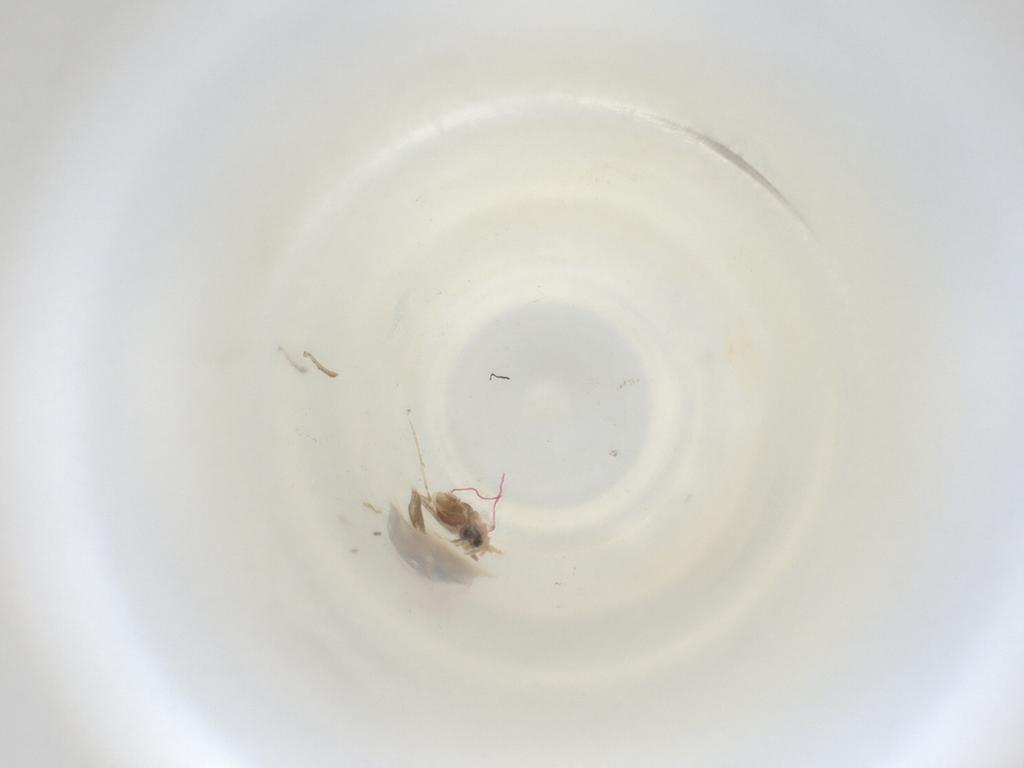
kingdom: Animalia
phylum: Arthropoda
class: Insecta
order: Diptera
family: Cecidomyiidae
